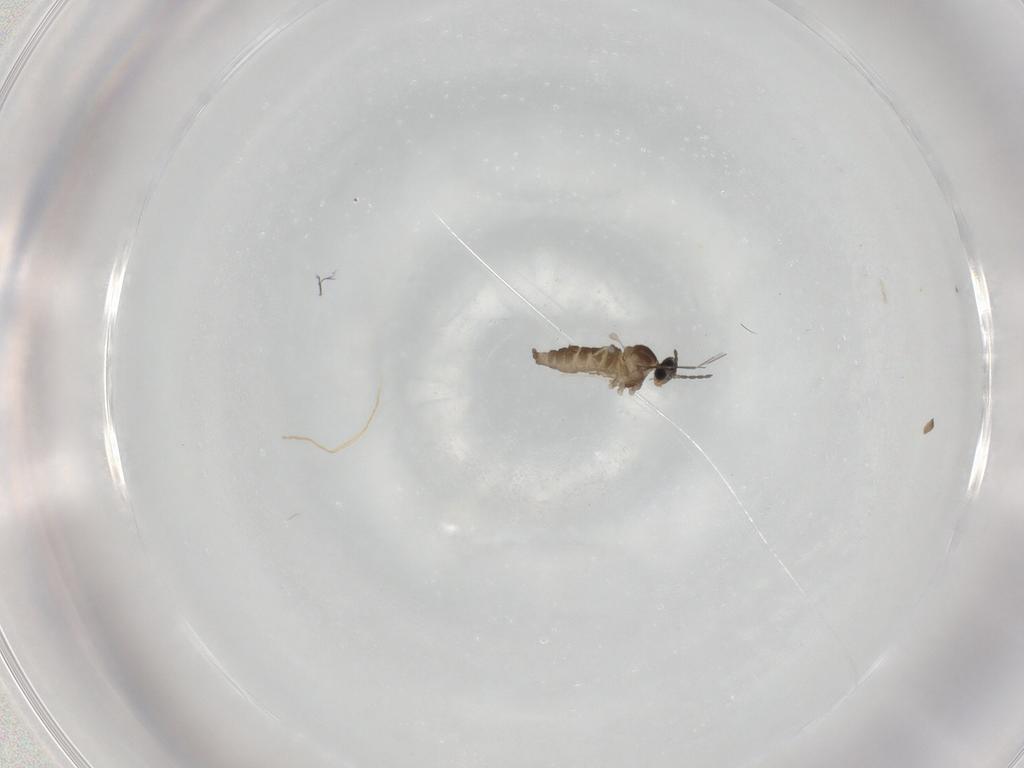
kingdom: Animalia
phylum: Arthropoda
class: Insecta
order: Diptera
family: Cecidomyiidae
